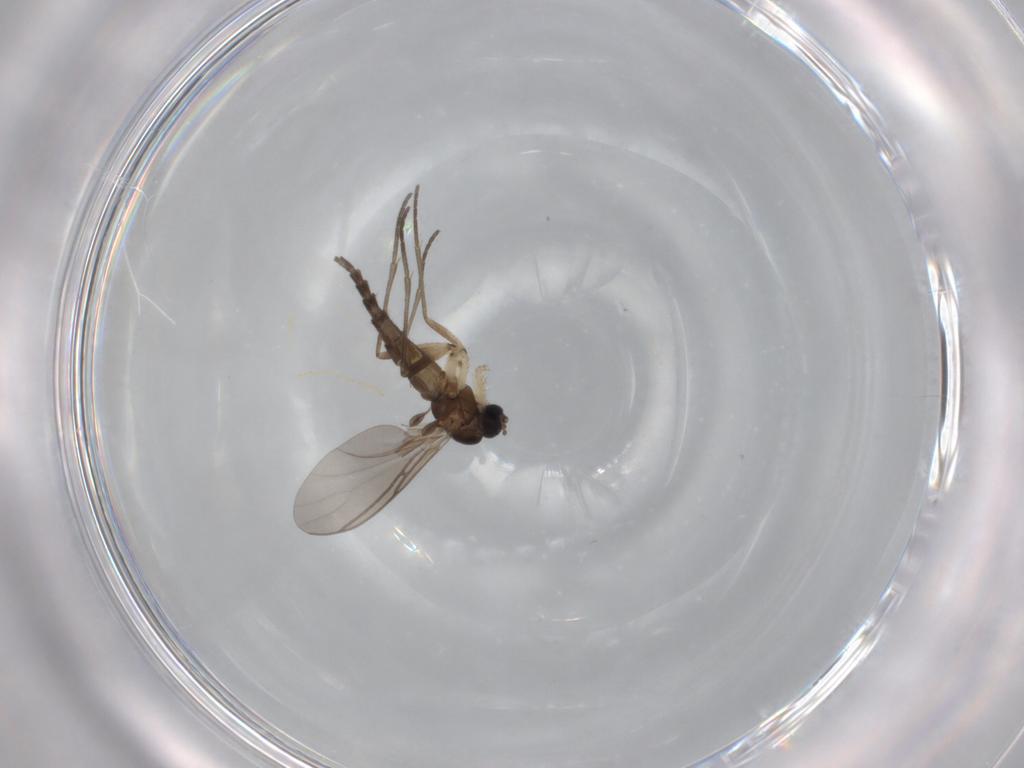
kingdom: Animalia
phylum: Arthropoda
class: Insecta
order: Diptera
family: Sciaridae
